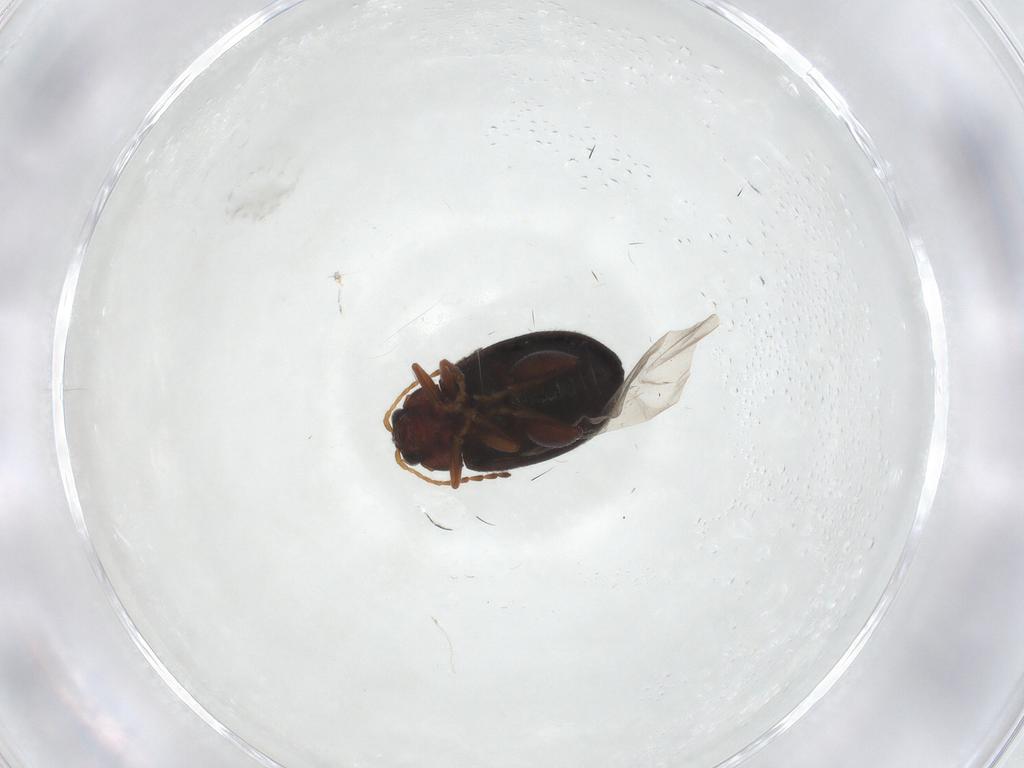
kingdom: Animalia
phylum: Arthropoda
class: Insecta
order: Coleoptera
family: Chrysomelidae
